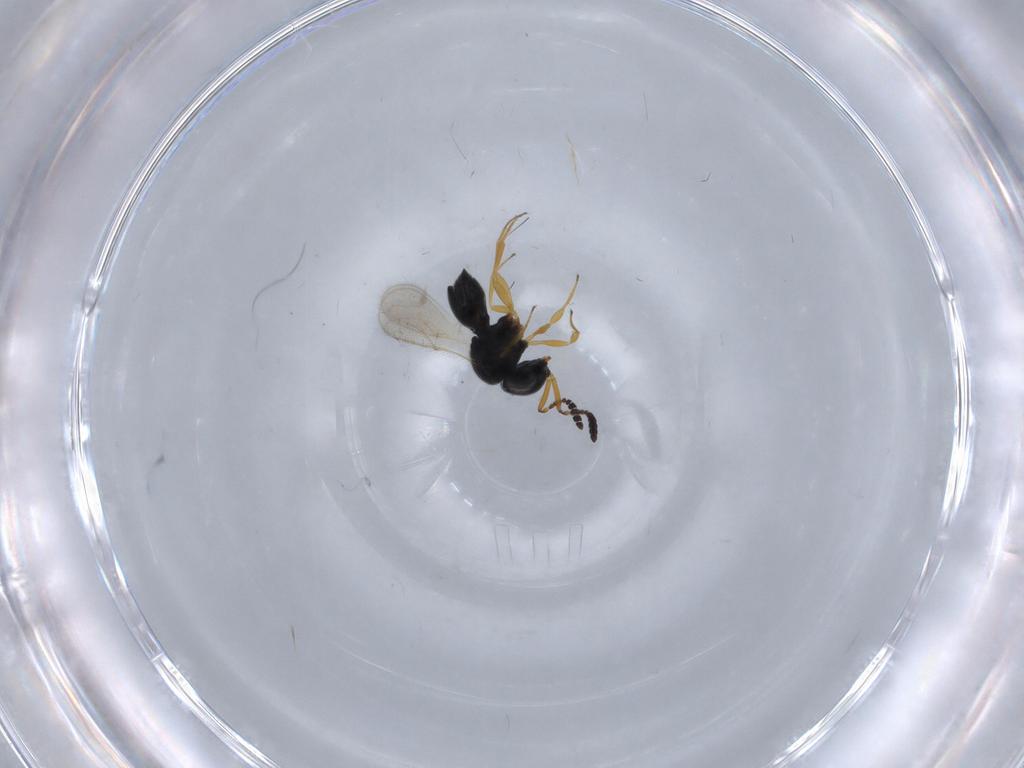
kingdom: Animalia
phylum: Arthropoda
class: Insecta
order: Hymenoptera
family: Scelionidae
